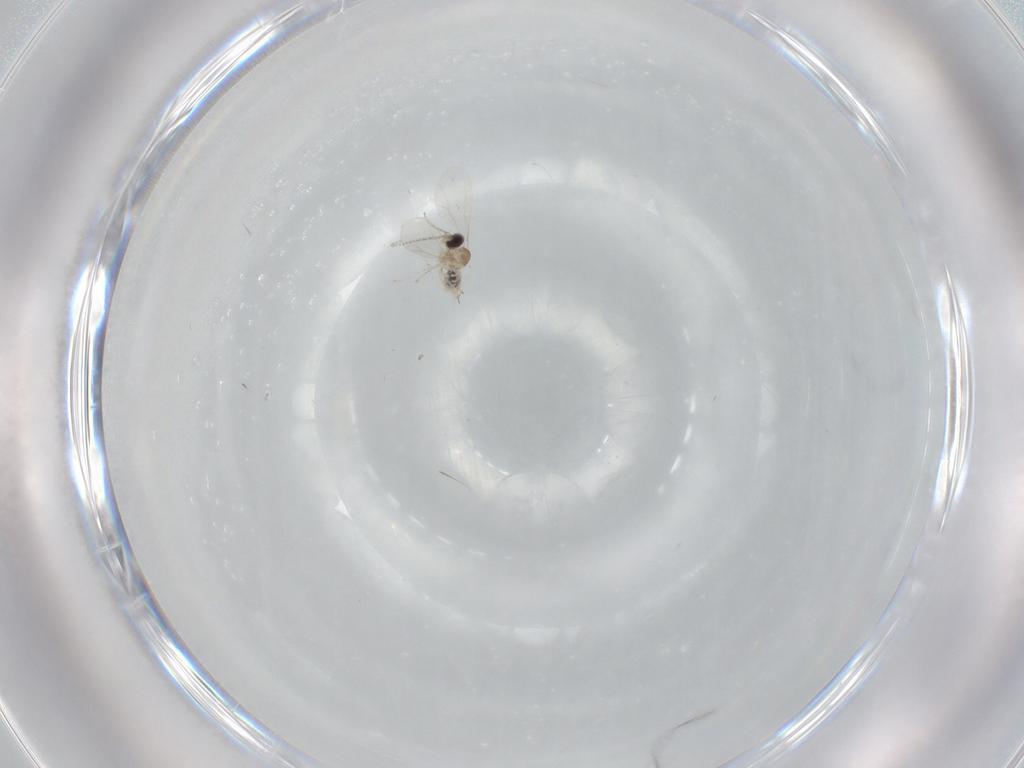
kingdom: Animalia
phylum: Arthropoda
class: Insecta
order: Diptera
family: Cecidomyiidae
